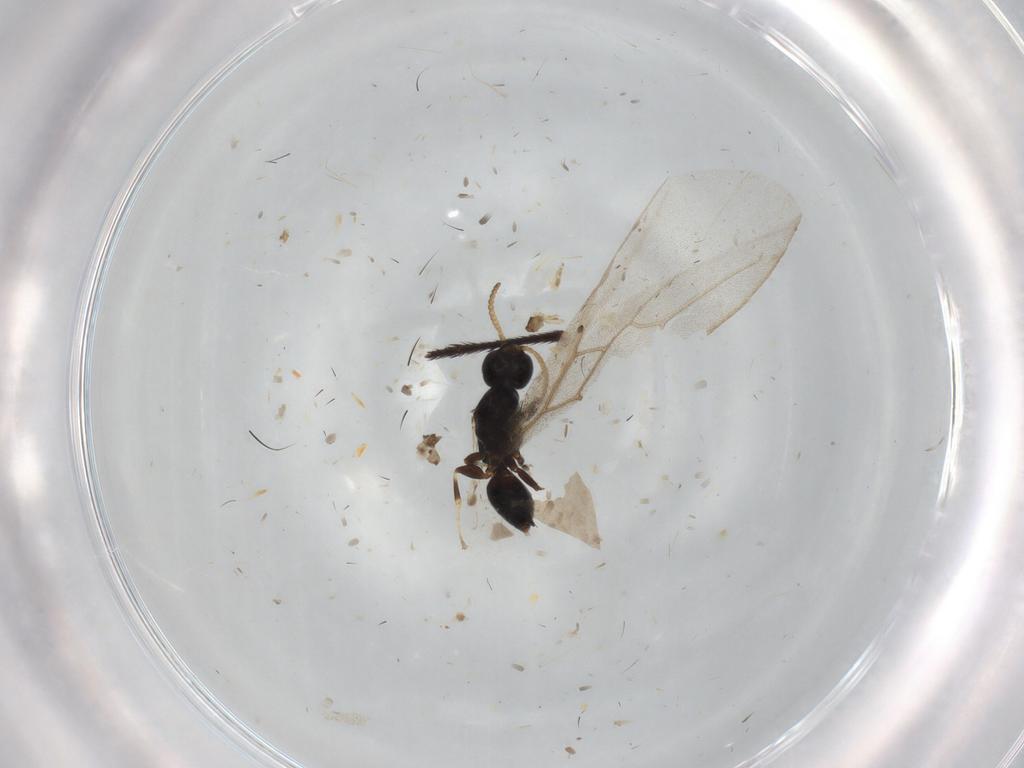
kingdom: Animalia
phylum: Arthropoda
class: Insecta
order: Hymenoptera
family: Bethylidae
